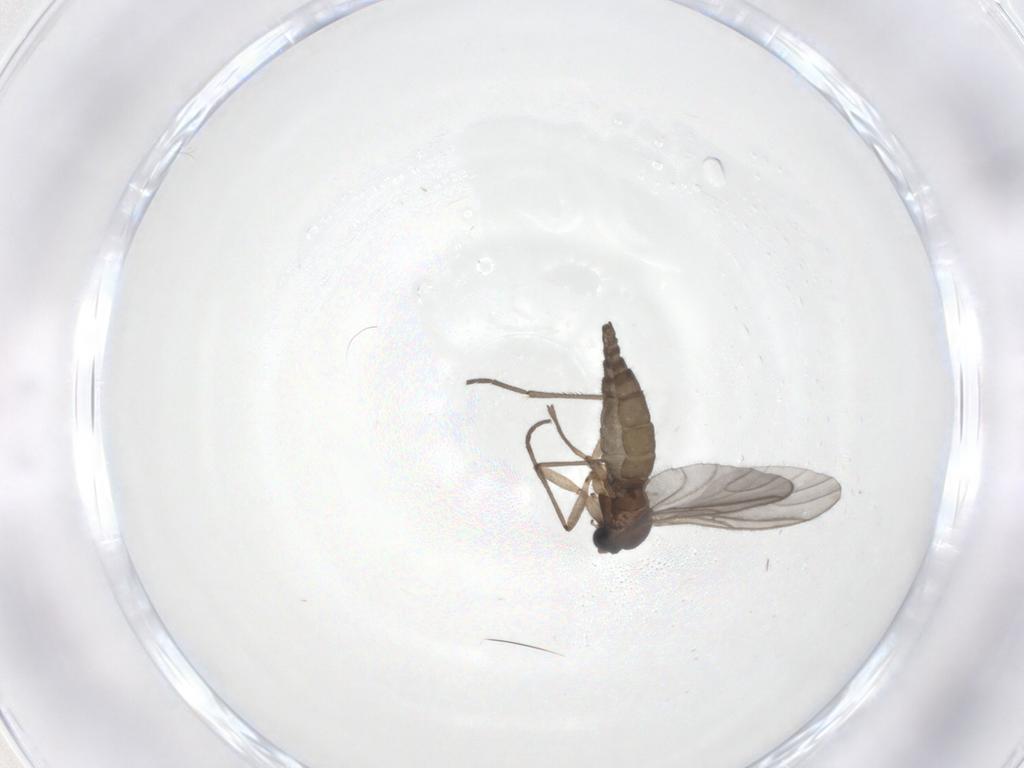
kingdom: Animalia
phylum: Arthropoda
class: Insecta
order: Diptera
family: Sciaridae
